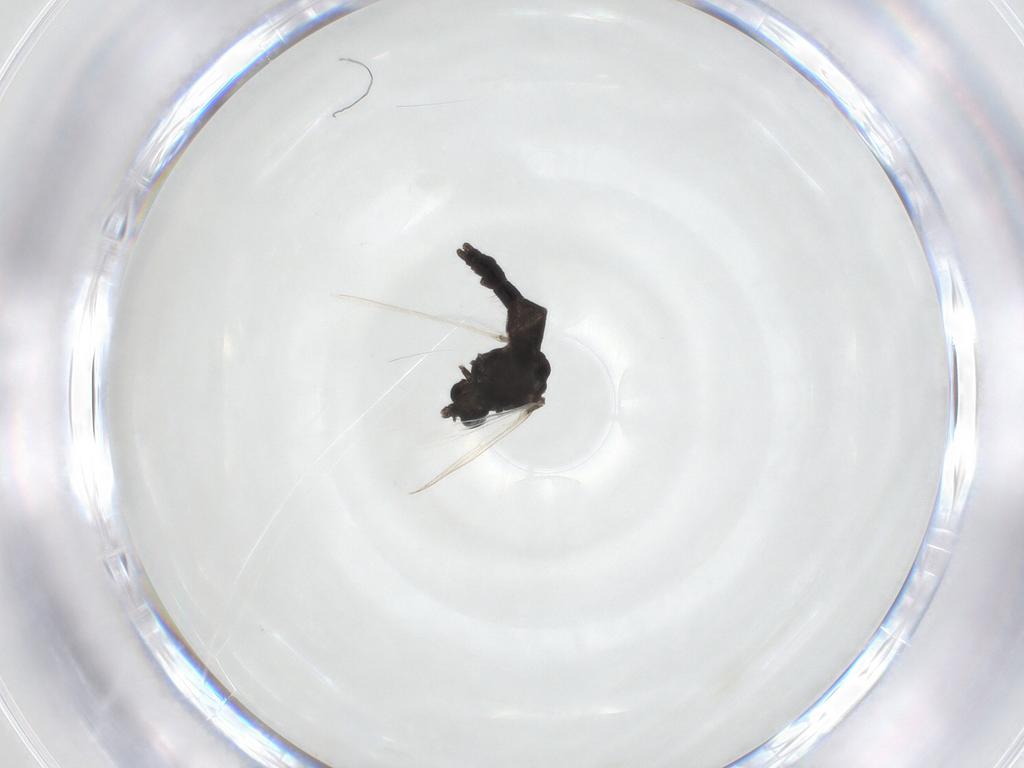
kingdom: Animalia
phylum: Arthropoda
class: Insecta
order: Diptera
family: Chironomidae
